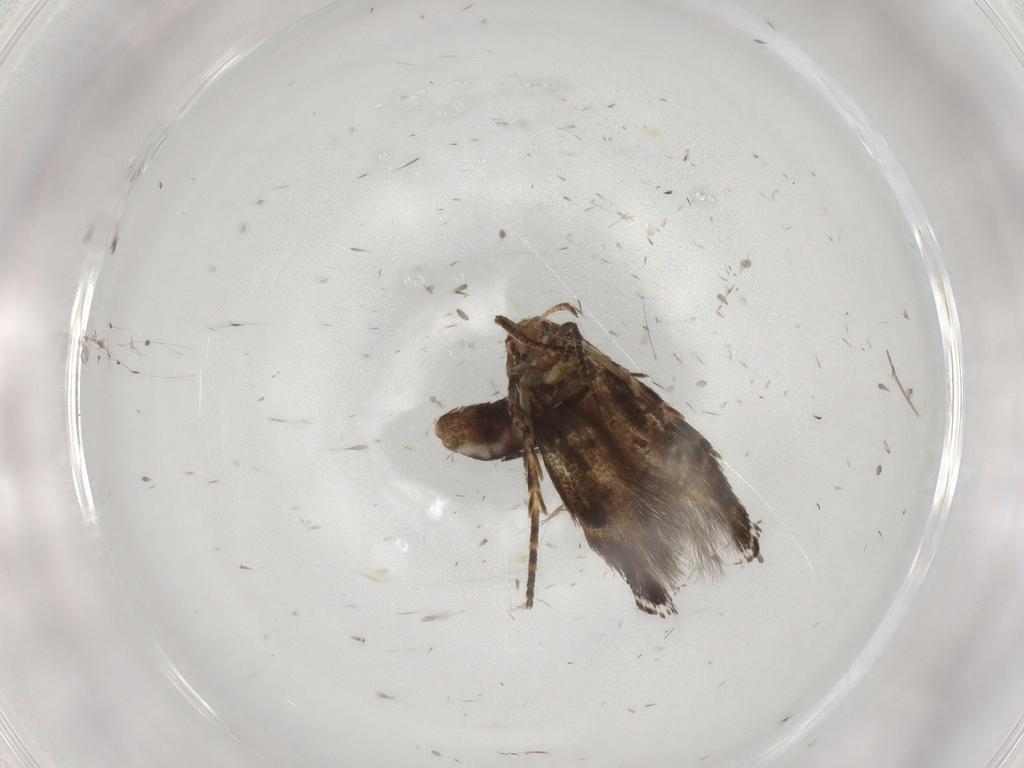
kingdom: Animalia
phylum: Arthropoda
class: Insecta
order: Lepidoptera
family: Momphidae
